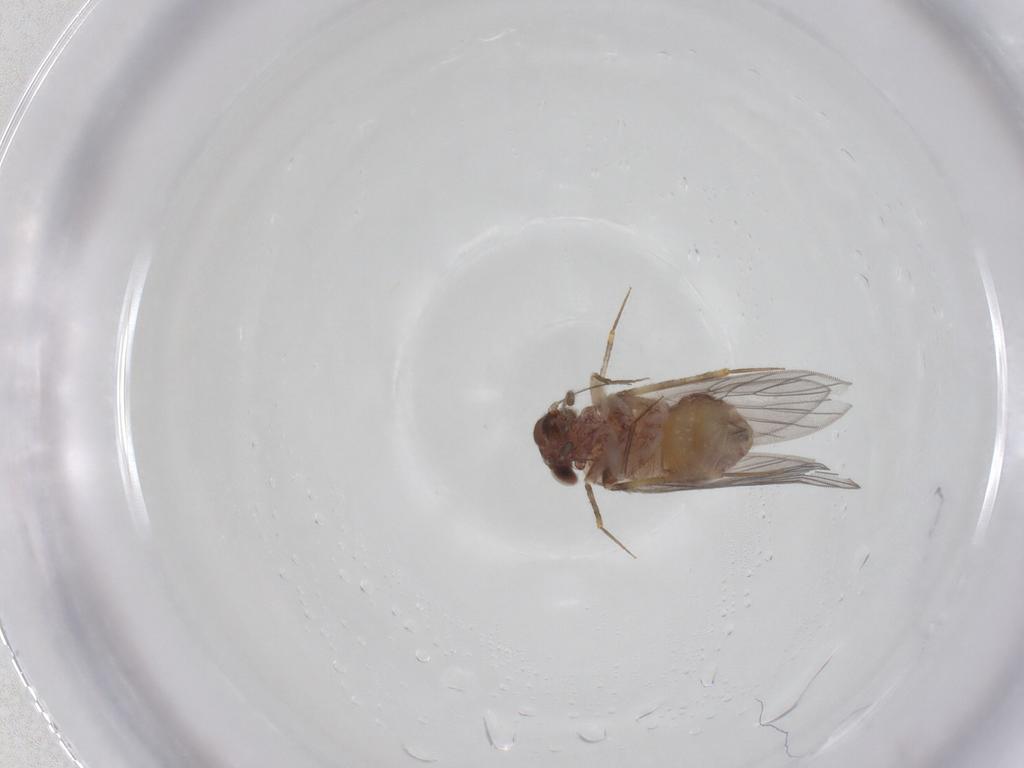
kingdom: Animalia
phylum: Arthropoda
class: Insecta
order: Psocodea
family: Lepidopsocidae
